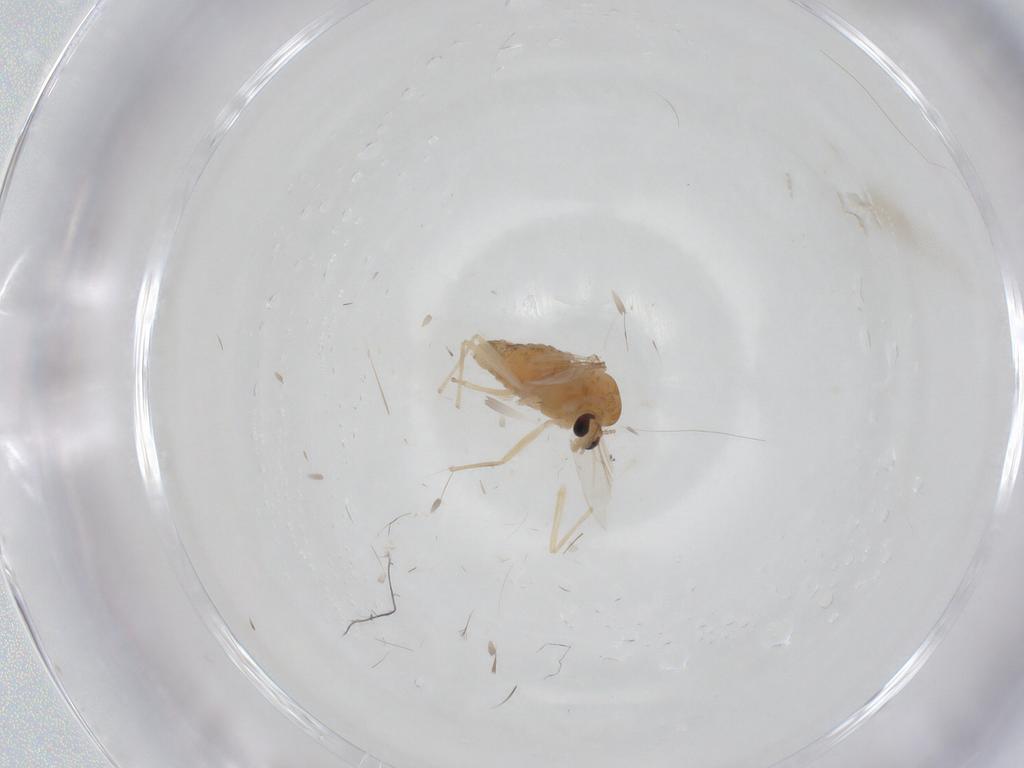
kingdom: Animalia
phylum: Arthropoda
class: Insecta
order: Diptera
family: Chironomidae
